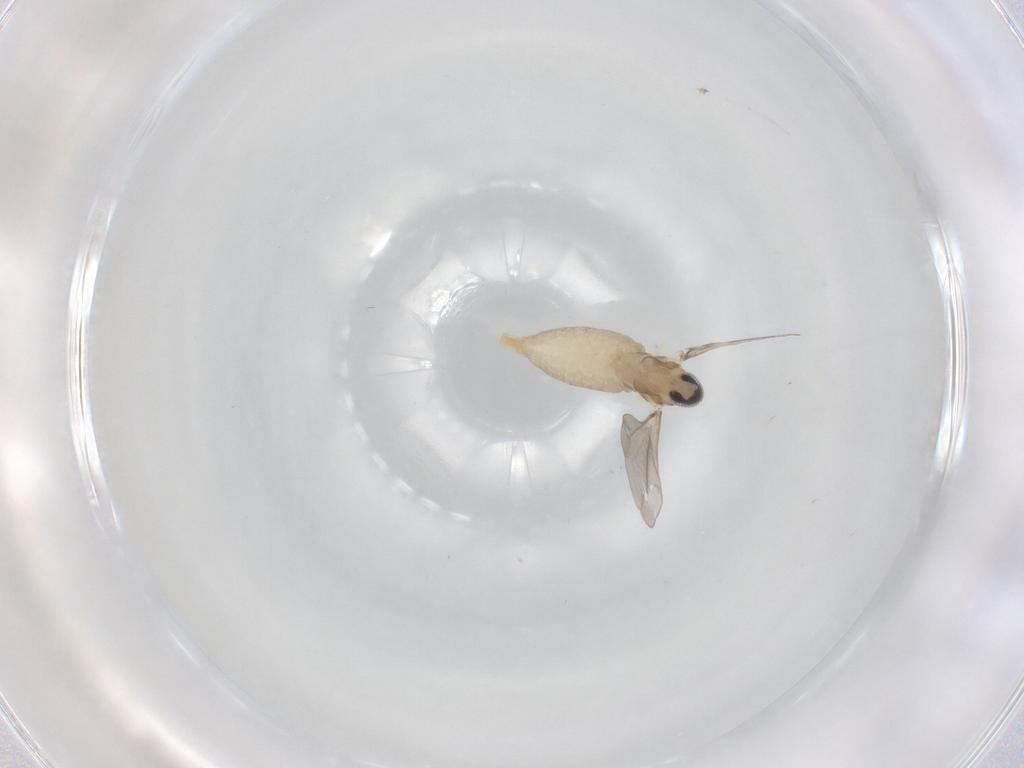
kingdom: Animalia
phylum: Arthropoda
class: Insecta
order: Diptera
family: Cecidomyiidae
